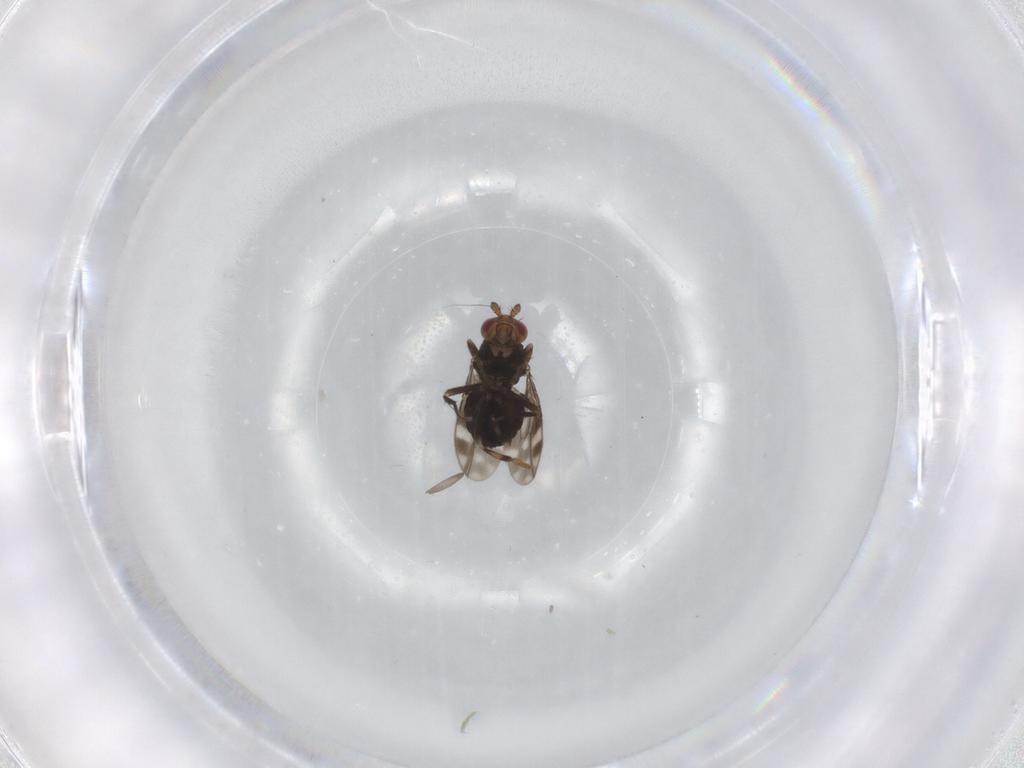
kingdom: Animalia
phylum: Arthropoda
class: Insecta
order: Diptera
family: Sphaeroceridae
